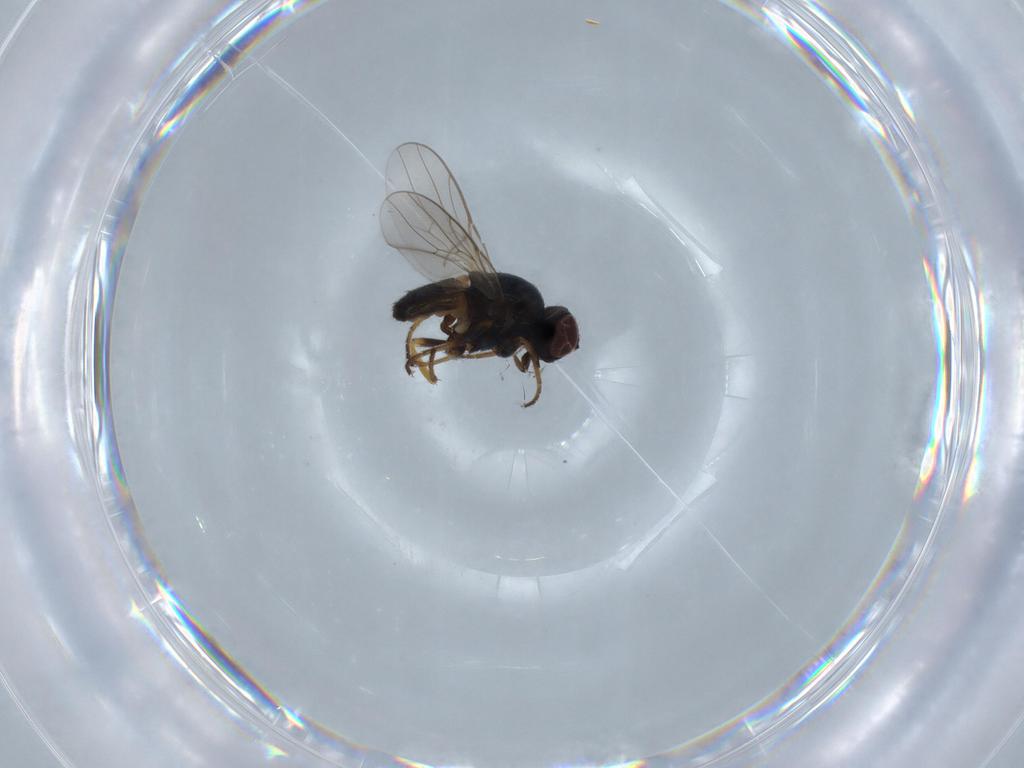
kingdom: Animalia
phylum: Arthropoda
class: Insecta
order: Diptera
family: Chloropidae
